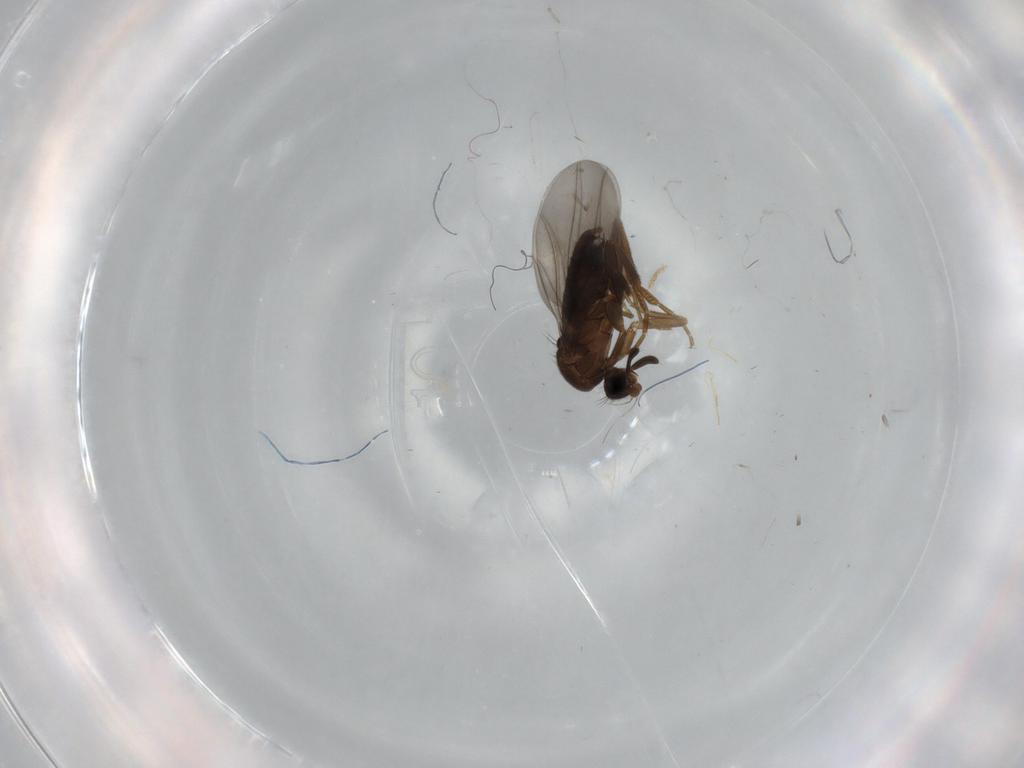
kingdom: Animalia
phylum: Arthropoda
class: Insecta
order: Diptera
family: Phoridae
